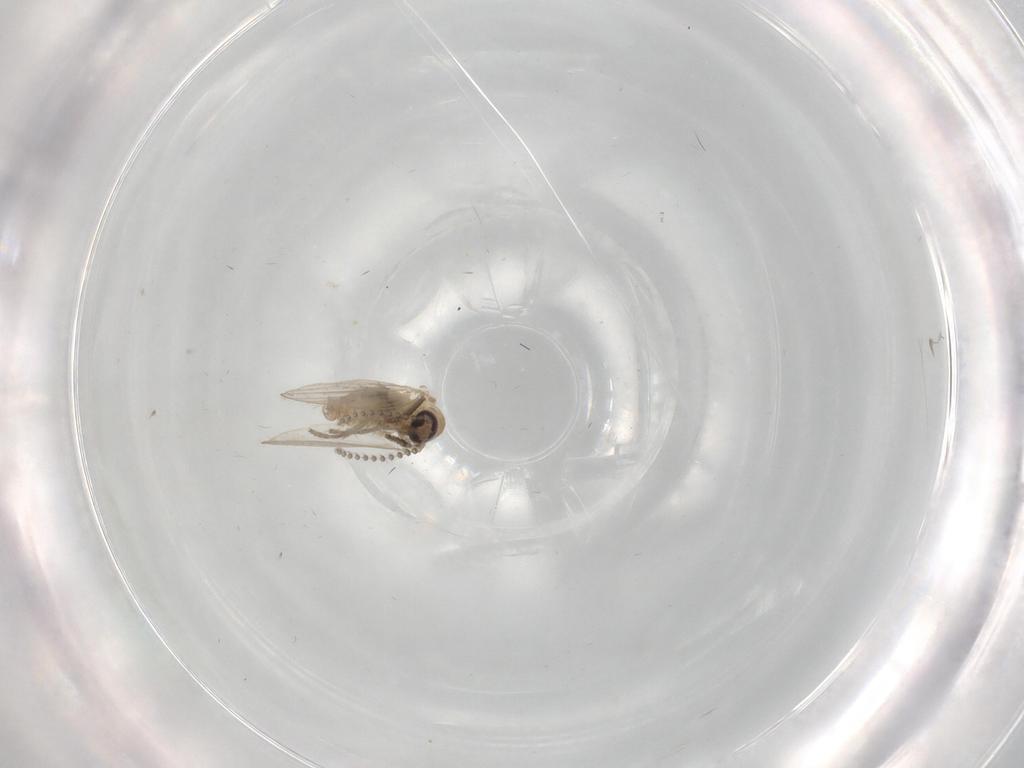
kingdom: Animalia
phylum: Arthropoda
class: Insecta
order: Diptera
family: Psychodidae
